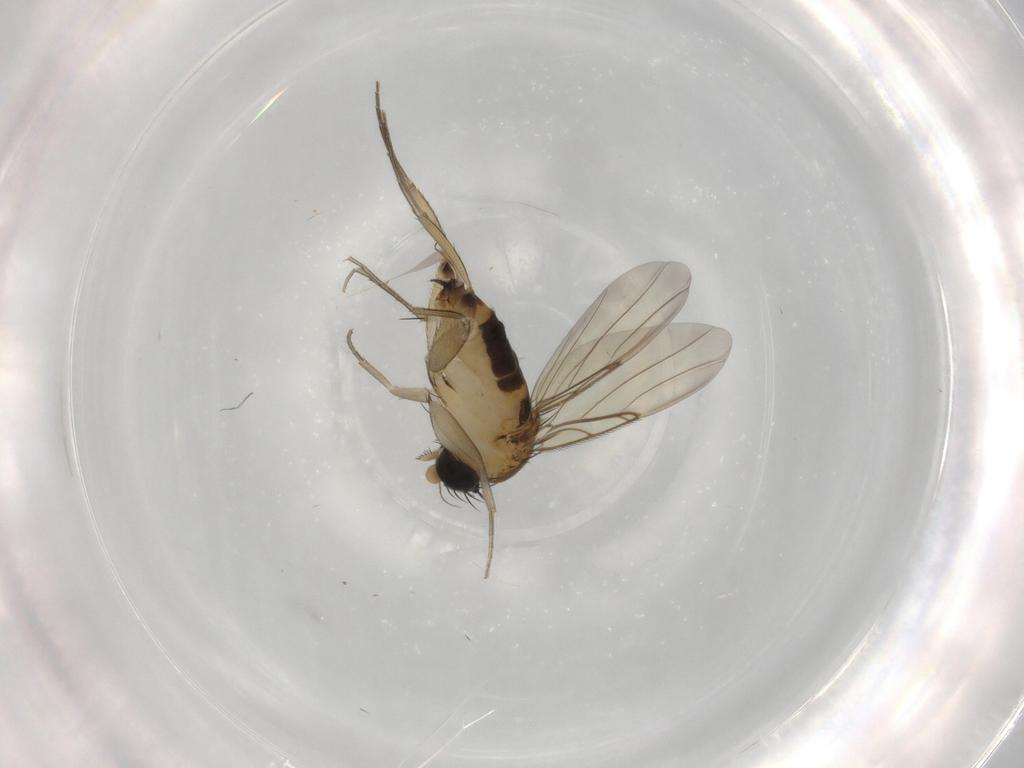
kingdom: Animalia
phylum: Arthropoda
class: Insecta
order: Diptera
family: Phoridae
